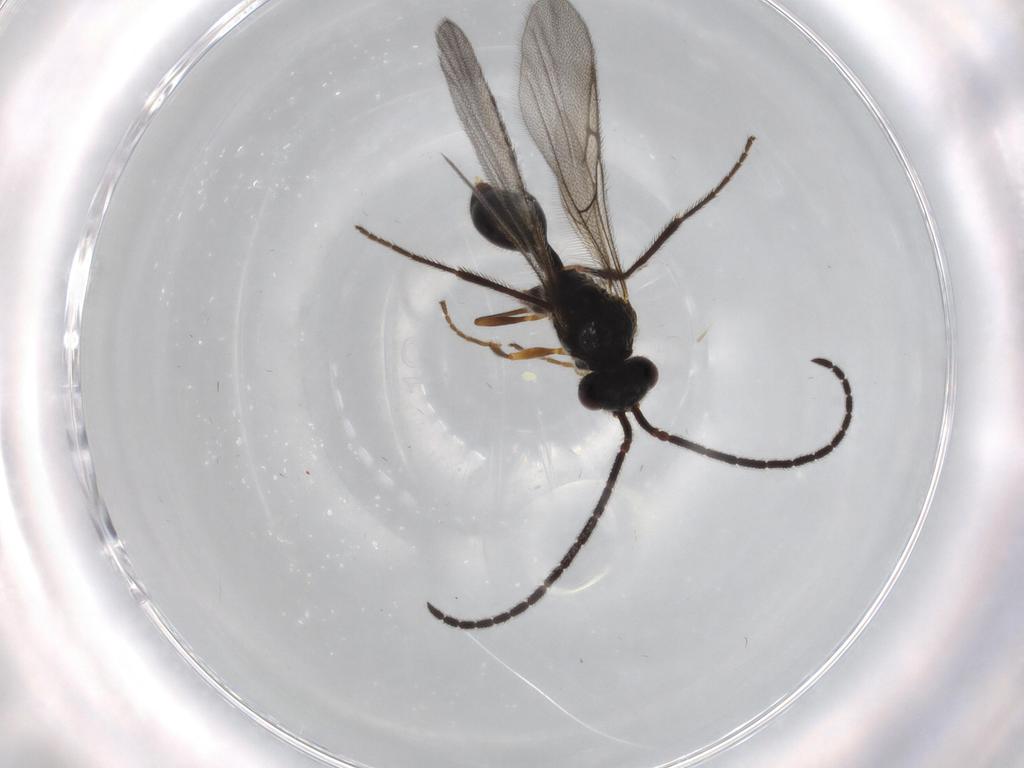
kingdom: Animalia
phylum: Arthropoda
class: Insecta
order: Hymenoptera
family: Diapriidae
